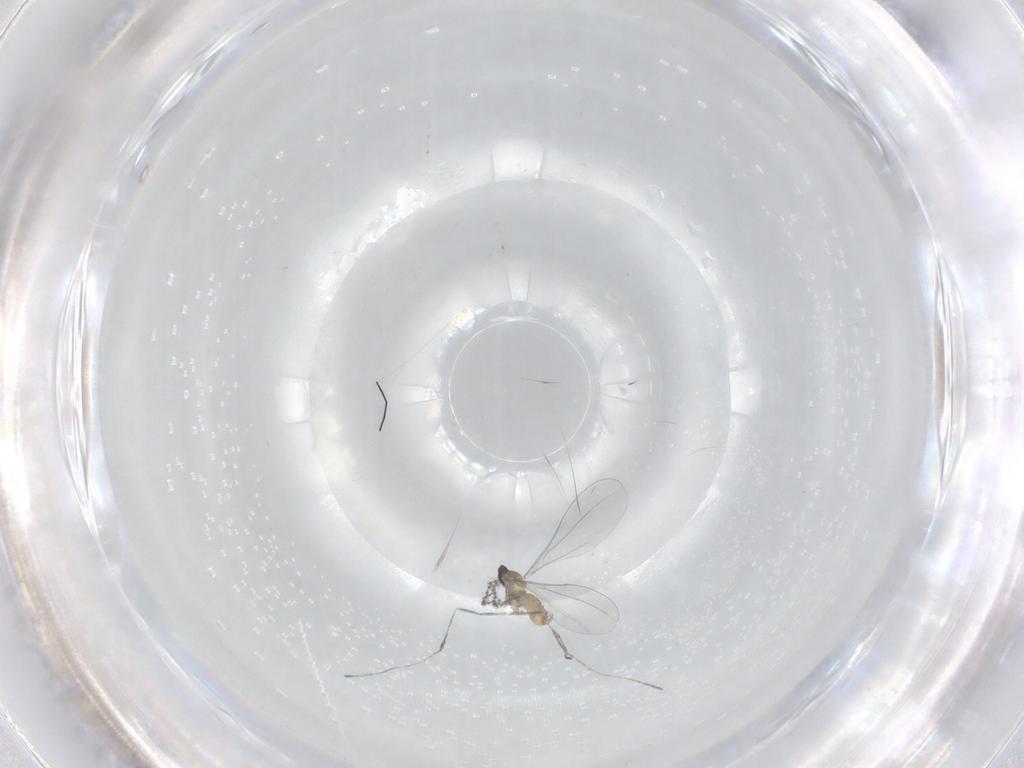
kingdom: Animalia
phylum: Arthropoda
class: Insecta
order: Diptera
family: Cecidomyiidae
